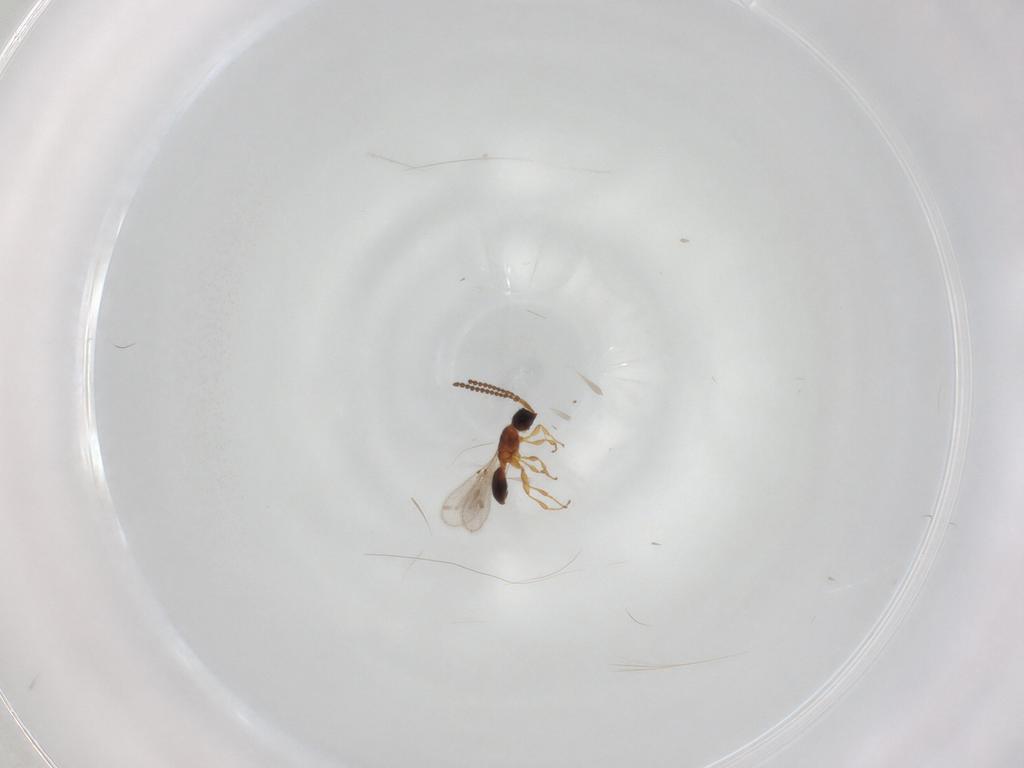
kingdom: Animalia
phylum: Arthropoda
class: Insecta
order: Hymenoptera
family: Diapriidae
